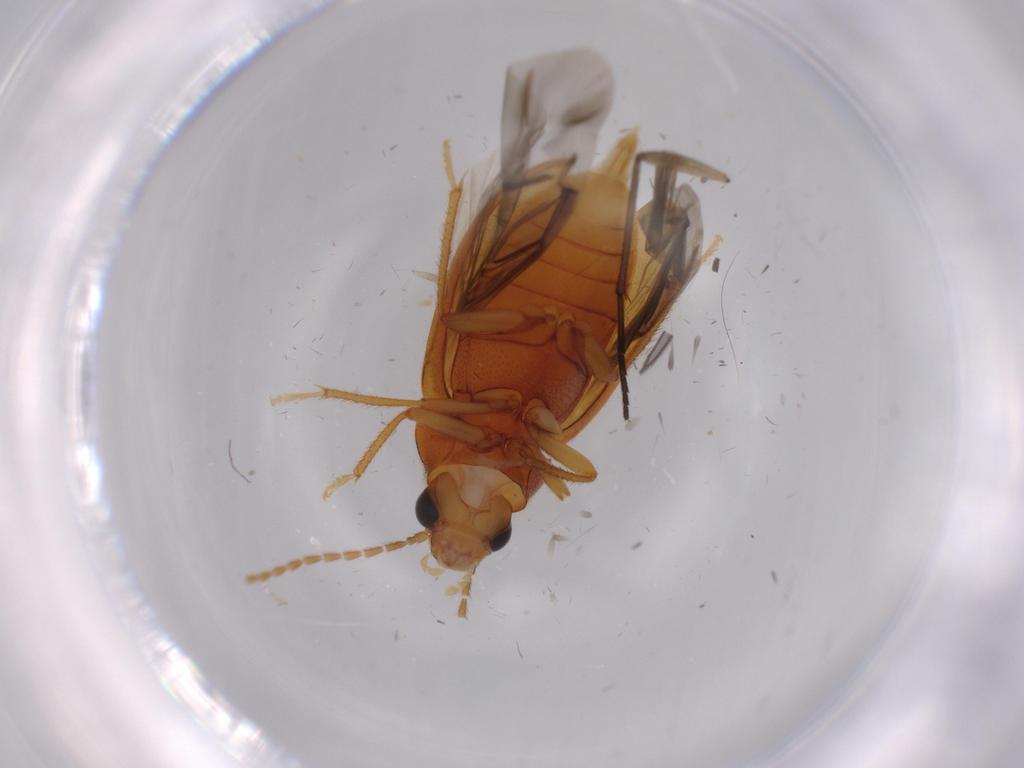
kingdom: Animalia
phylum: Arthropoda
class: Insecta
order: Coleoptera
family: Ptilodactylidae
